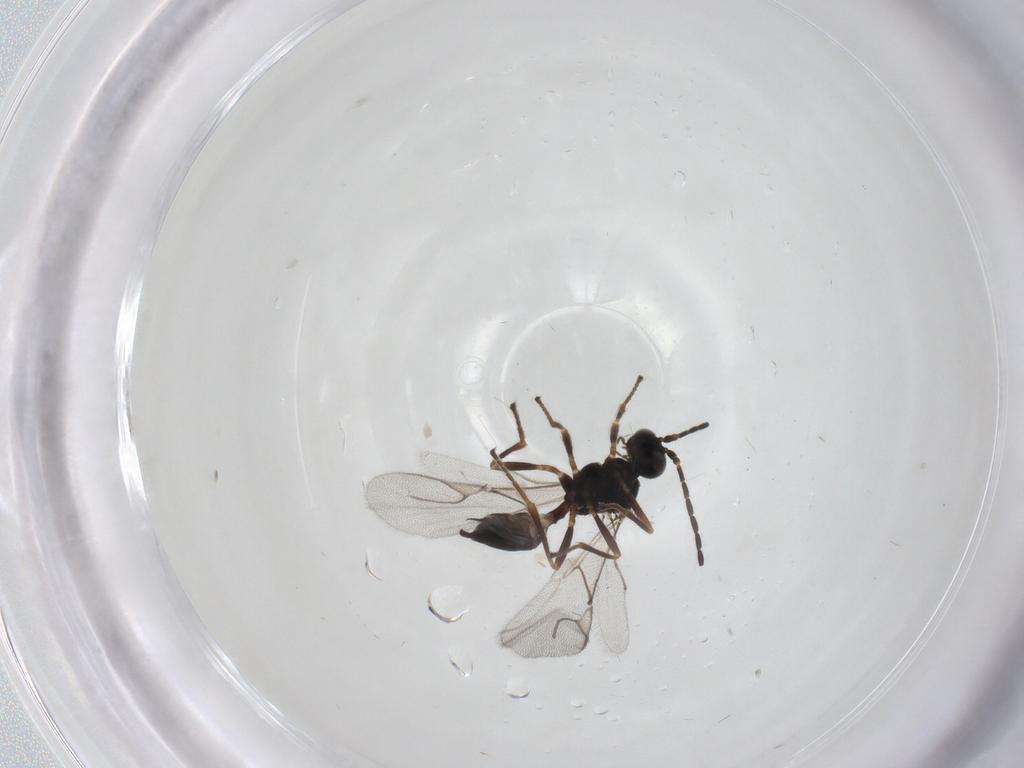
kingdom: Animalia
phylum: Arthropoda
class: Insecta
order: Hymenoptera
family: Braconidae
